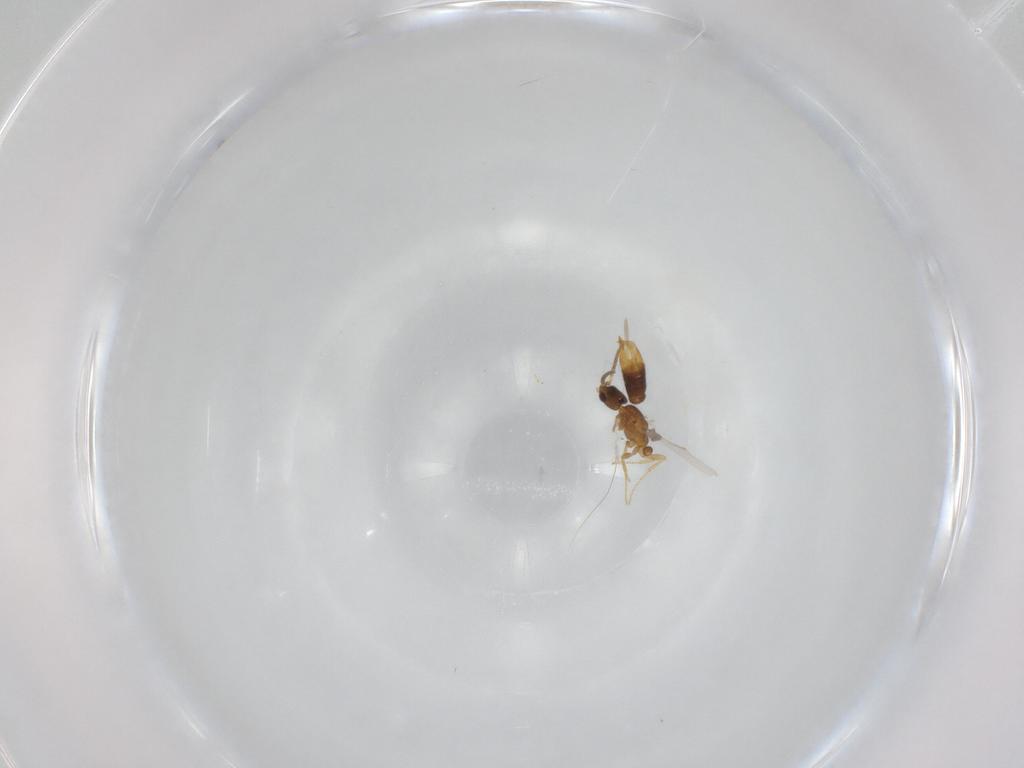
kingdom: Animalia
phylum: Arthropoda
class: Insecta
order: Hymenoptera
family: Formicidae
